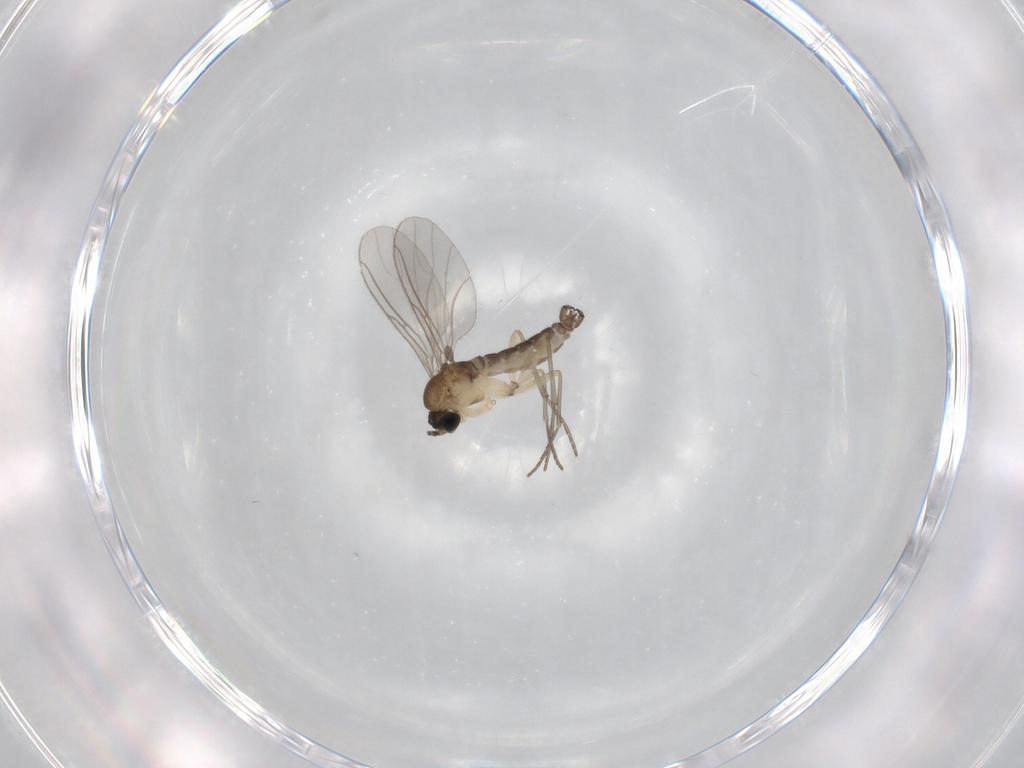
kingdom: Animalia
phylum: Arthropoda
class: Insecta
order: Diptera
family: Sciaridae
